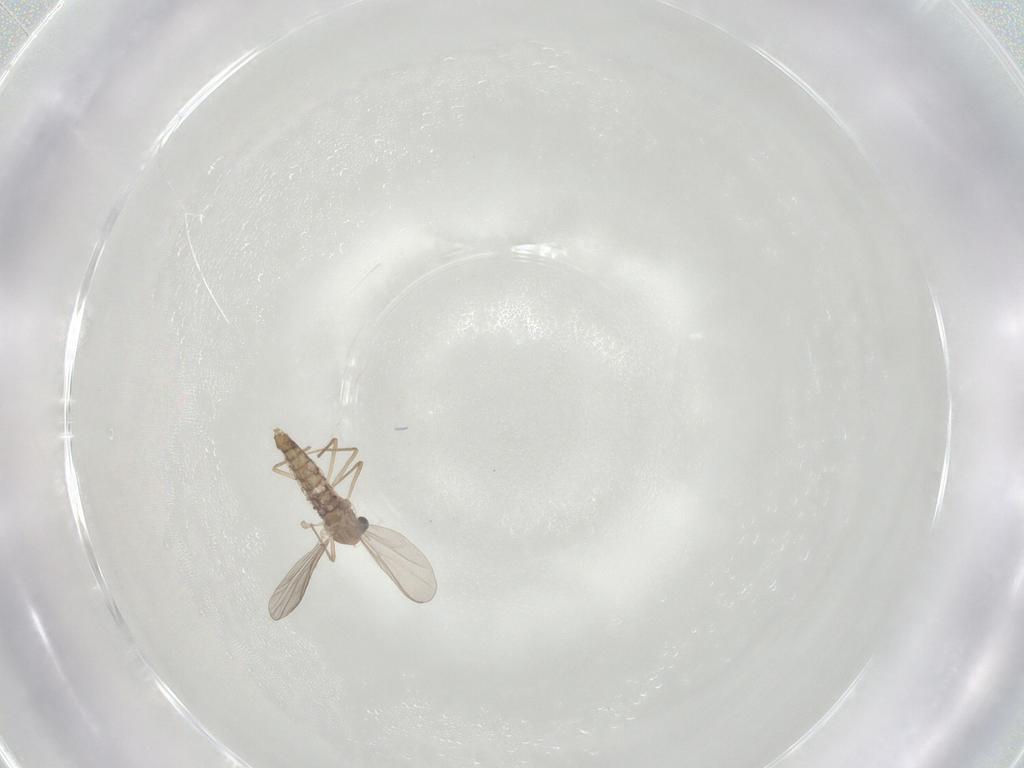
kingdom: Animalia
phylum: Arthropoda
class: Insecta
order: Diptera
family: Chironomidae
